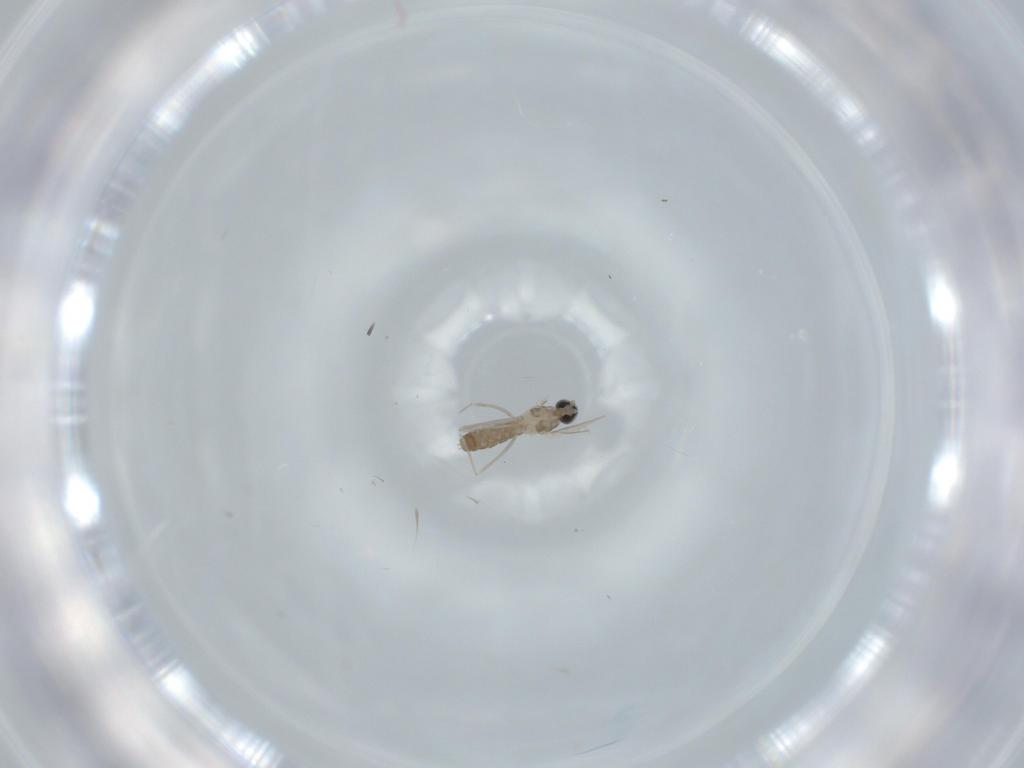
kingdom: Animalia
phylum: Arthropoda
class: Insecta
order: Diptera
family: Cecidomyiidae
